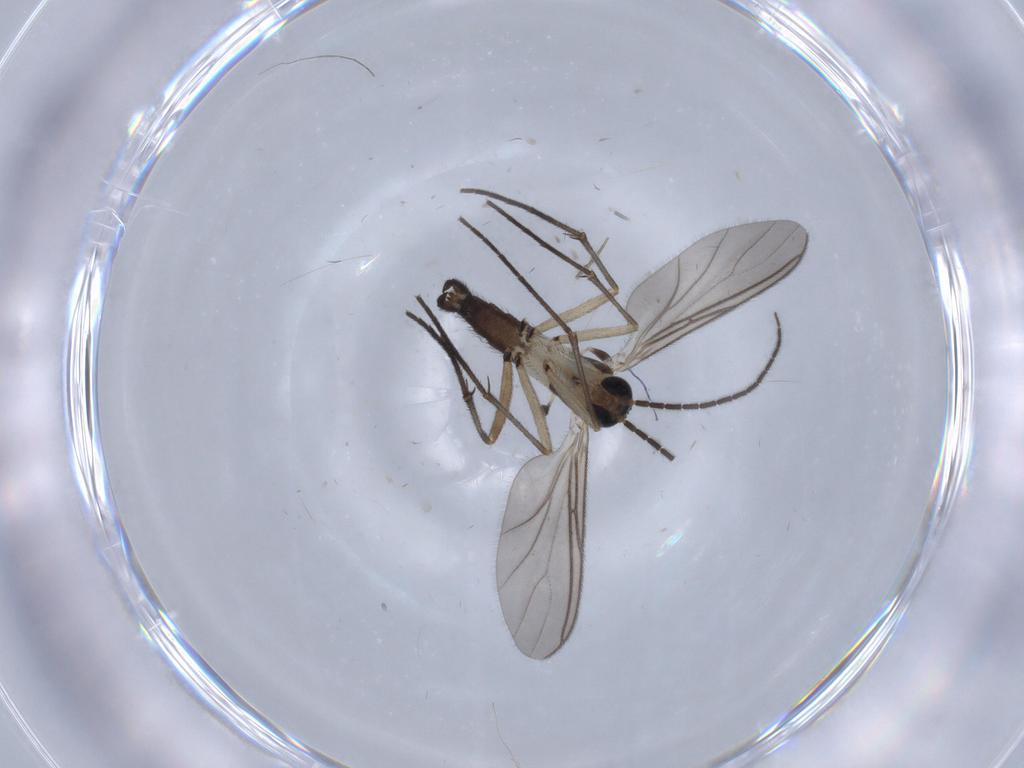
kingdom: Animalia
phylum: Arthropoda
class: Insecta
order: Diptera
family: Sciaridae
